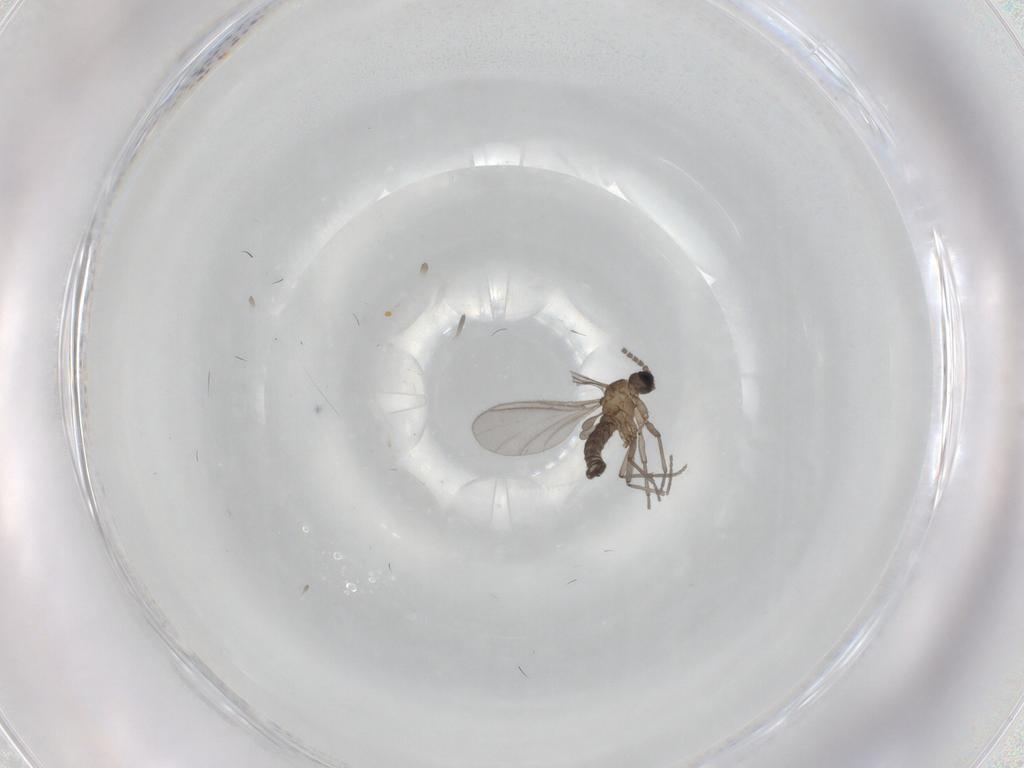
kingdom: Animalia
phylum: Arthropoda
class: Insecta
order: Diptera
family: Sciaridae
